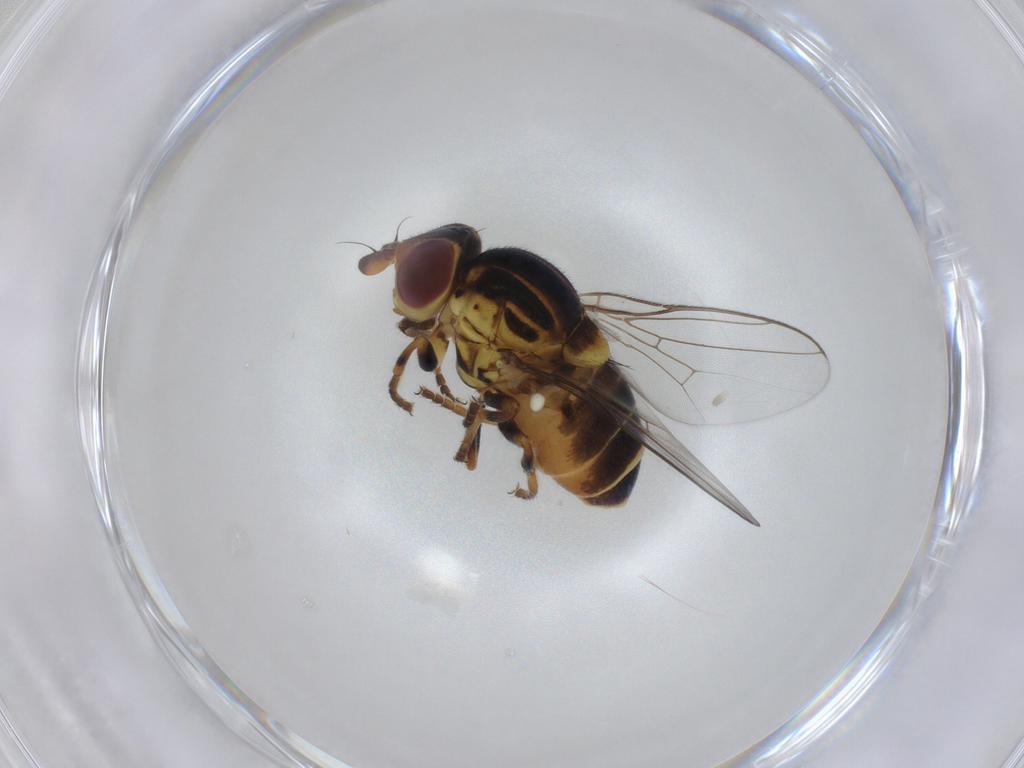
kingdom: Animalia
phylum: Arthropoda
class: Insecta
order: Diptera
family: Chloropidae
